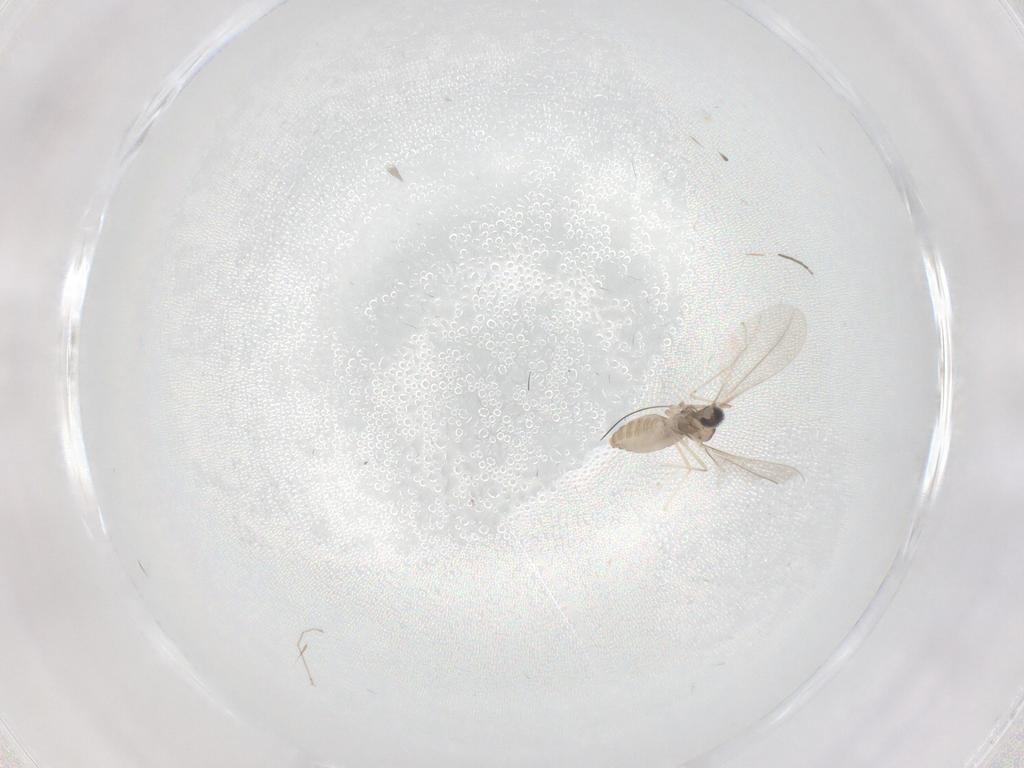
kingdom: Animalia
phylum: Arthropoda
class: Insecta
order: Diptera
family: Cecidomyiidae
